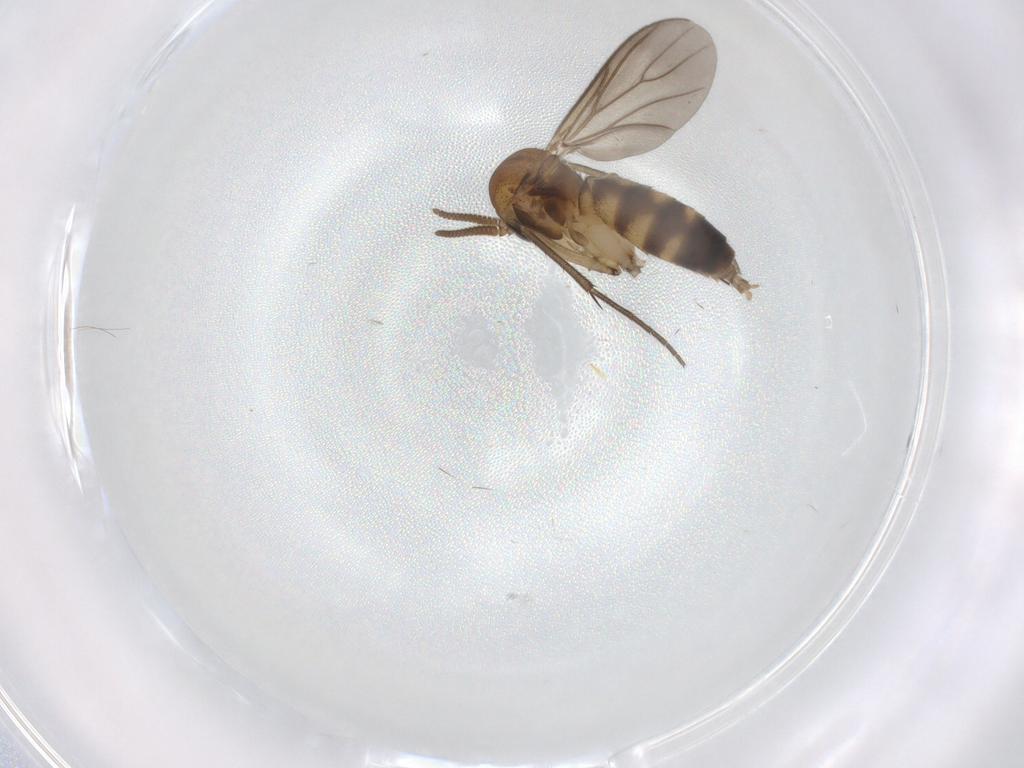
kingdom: Animalia
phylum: Arthropoda
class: Insecta
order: Diptera
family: Mycetophilidae
